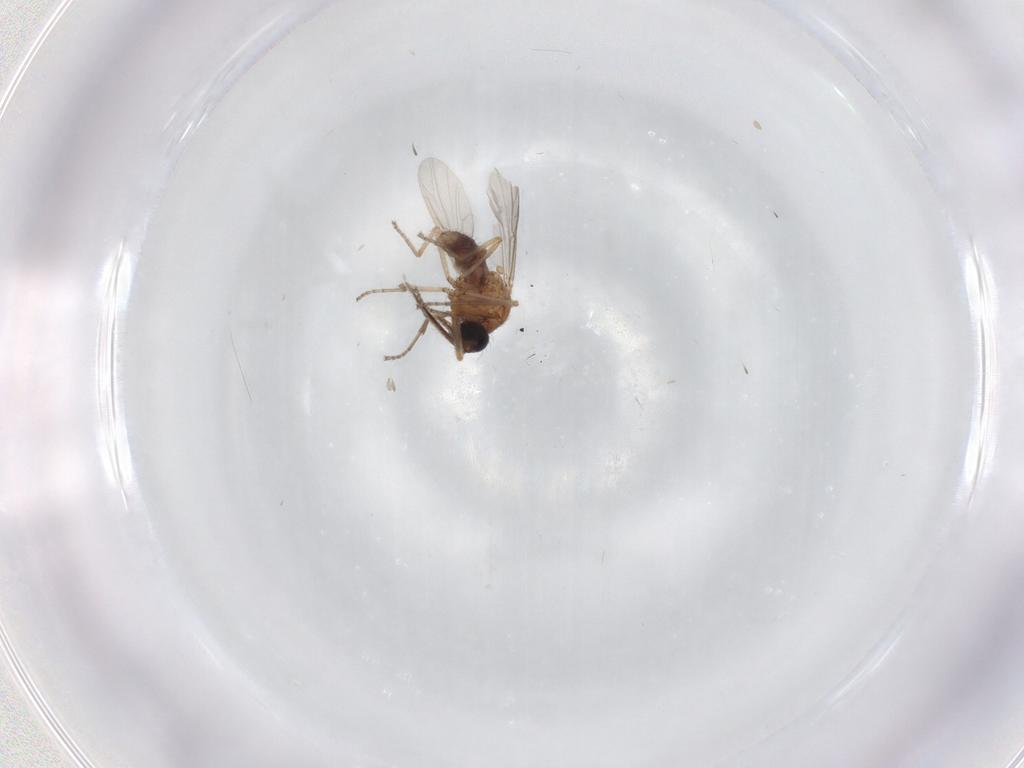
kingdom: Animalia
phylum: Arthropoda
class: Insecta
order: Diptera
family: Ceratopogonidae
